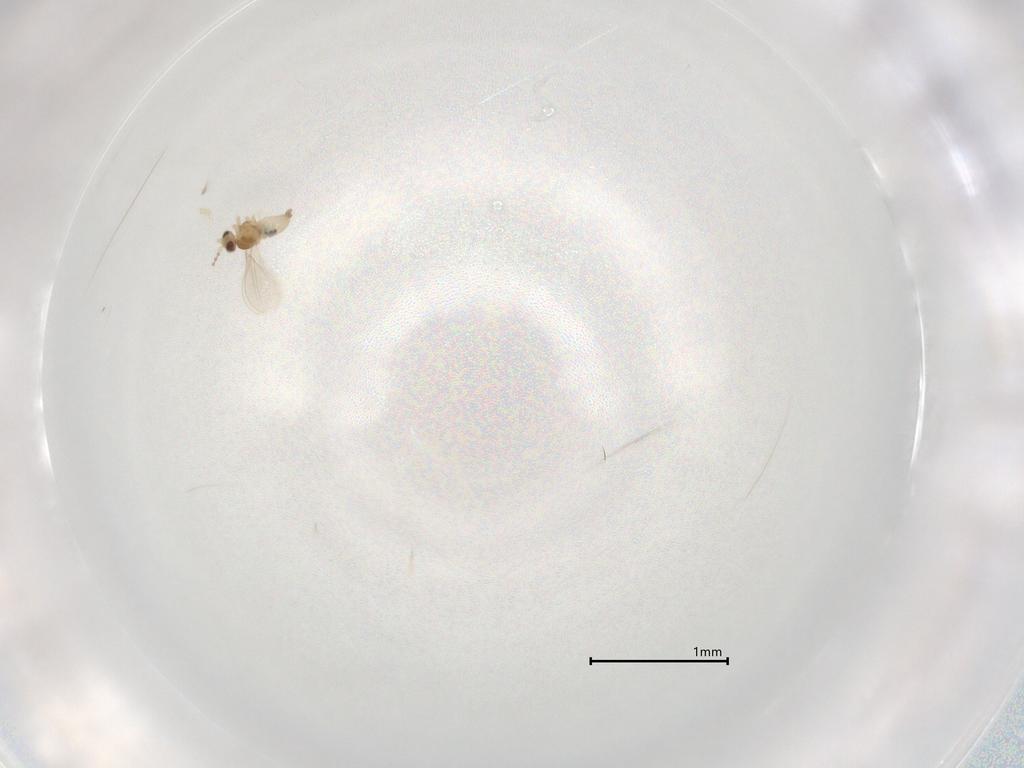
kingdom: Animalia
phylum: Arthropoda
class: Insecta
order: Diptera
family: Cecidomyiidae
